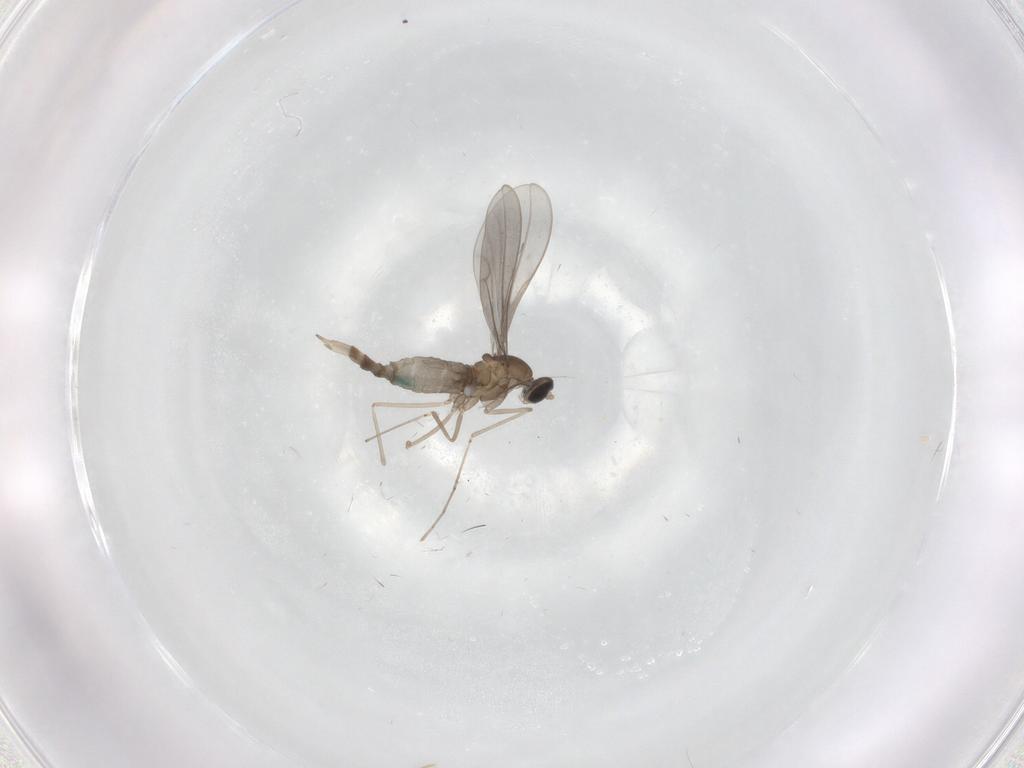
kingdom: Animalia
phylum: Arthropoda
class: Insecta
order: Diptera
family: Cecidomyiidae
